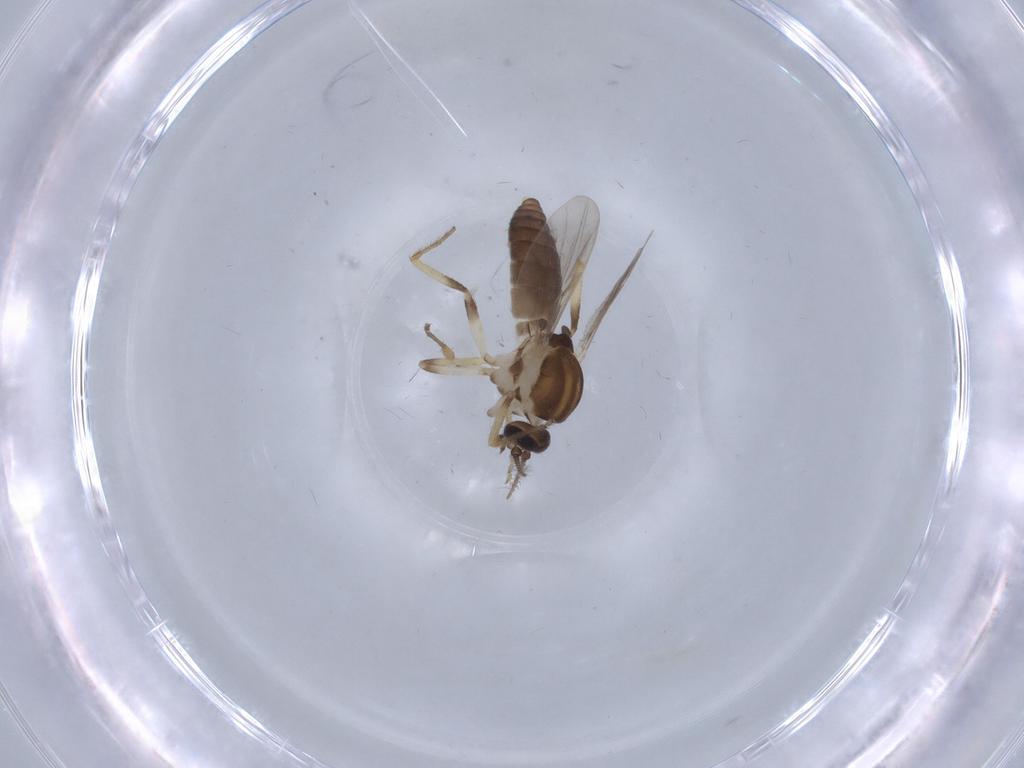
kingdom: Animalia
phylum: Arthropoda
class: Insecta
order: Diptera
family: Ceratopogonidae
